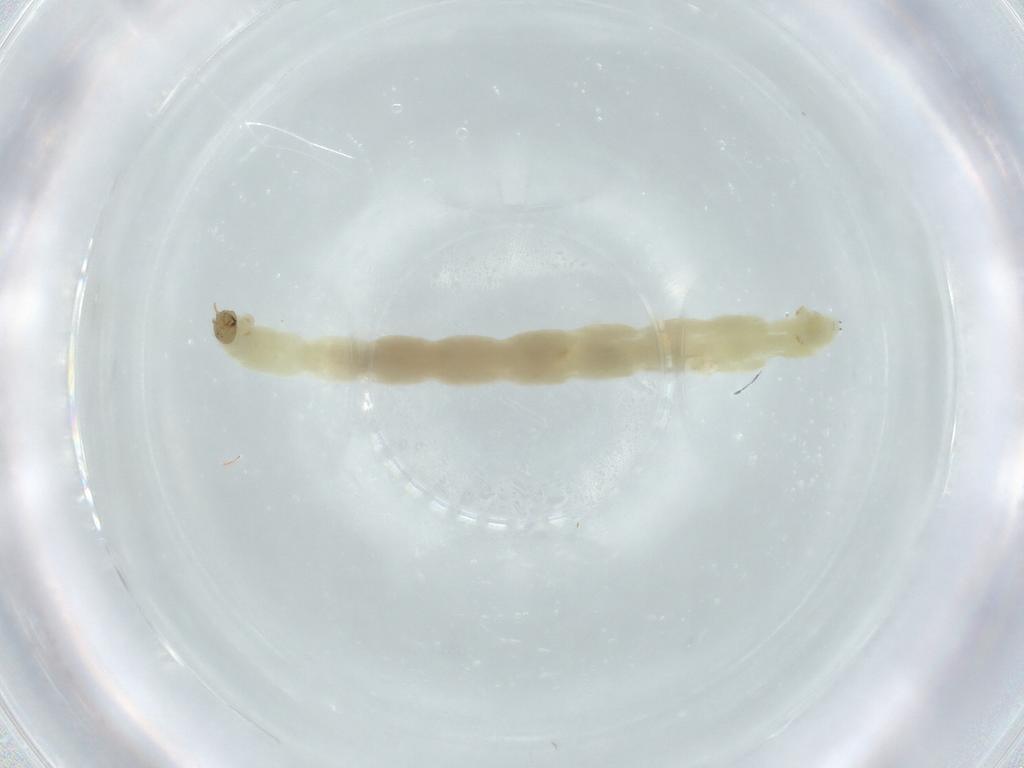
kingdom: Animalia
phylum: Arthropoda
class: Insecta
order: Diptera
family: Chironomidae
